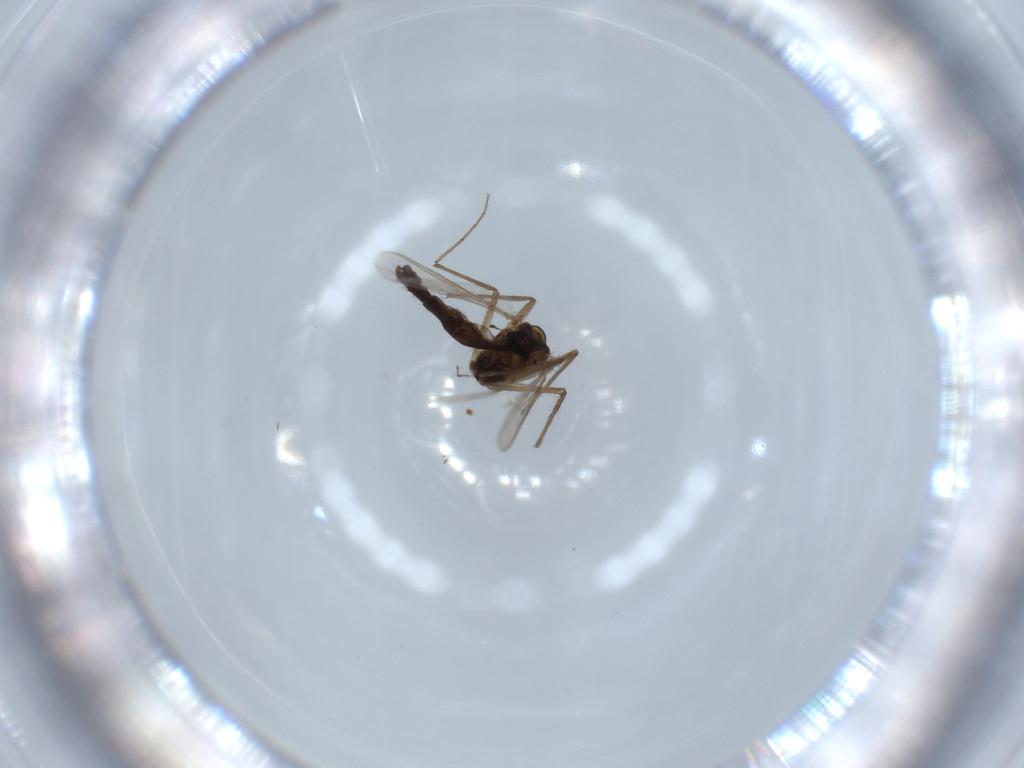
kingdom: Animalia
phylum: Arthropoda
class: Insecta
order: Diptera
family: Chironomidae
